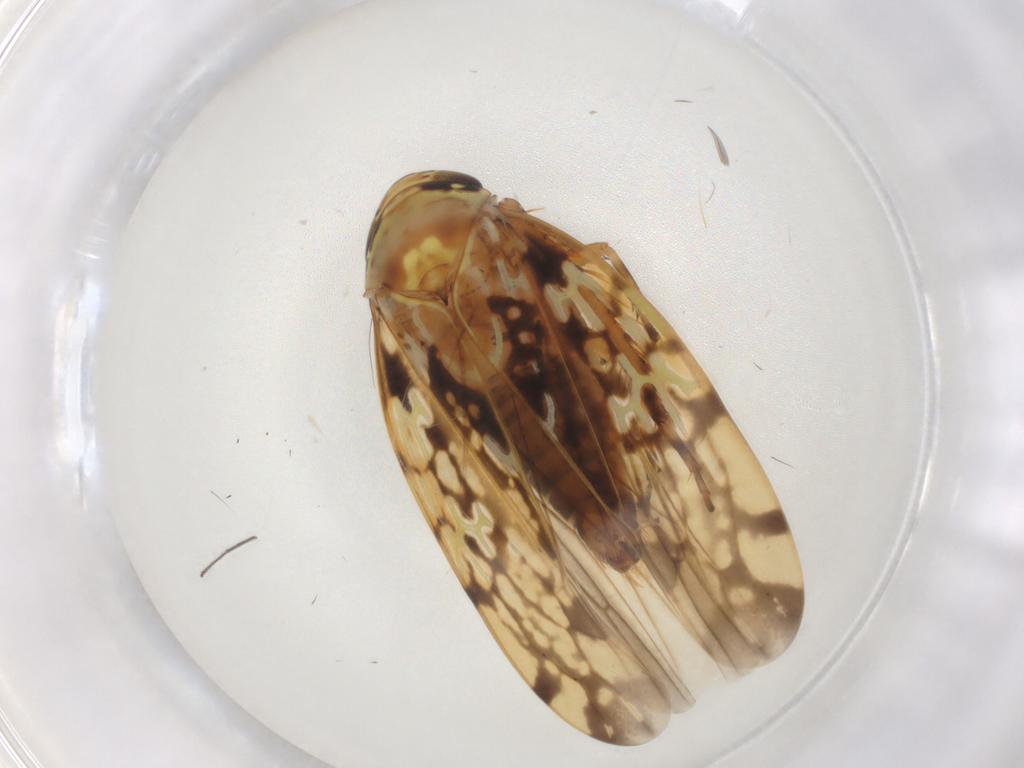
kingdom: Animalia
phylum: Arthropoda
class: Insecta
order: Hemiptera
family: Cicadellidae
